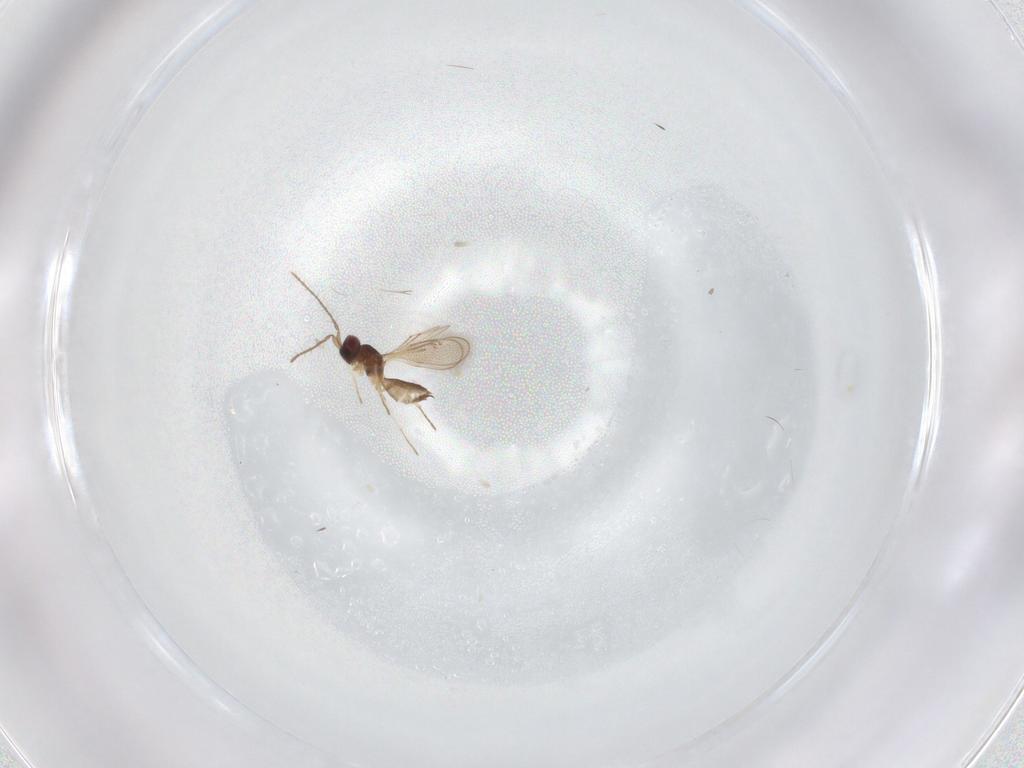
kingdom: Animalia
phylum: Arthropoda
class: Insecta
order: Hymenoptera
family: Eulophidae
